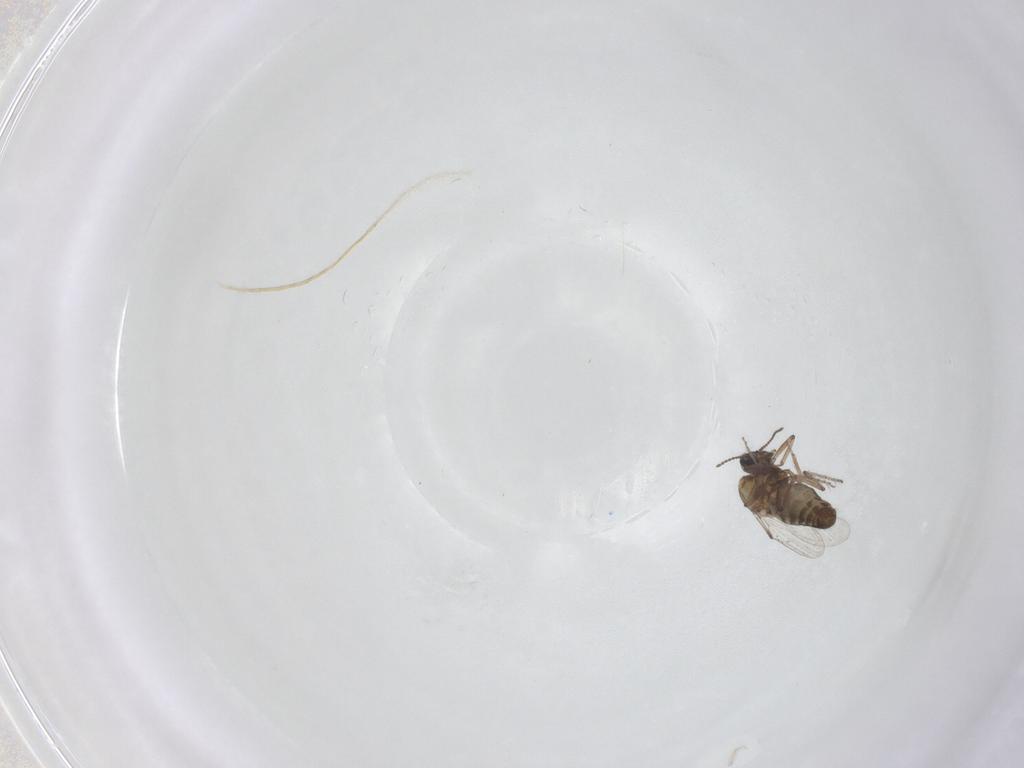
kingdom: Animalia
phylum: Arthropoda
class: Insecta
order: Diptera
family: Ceratopogonidae
